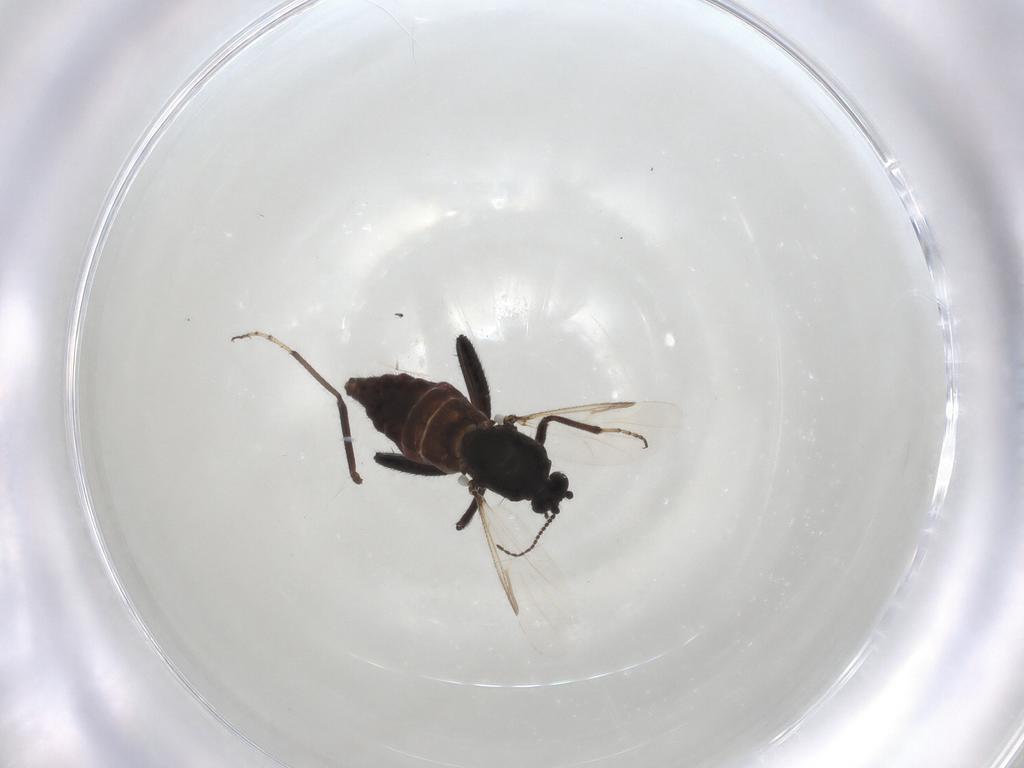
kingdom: Animalia
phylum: Arthropoda
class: Insecta
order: Diptera
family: Ceratopogonidae
